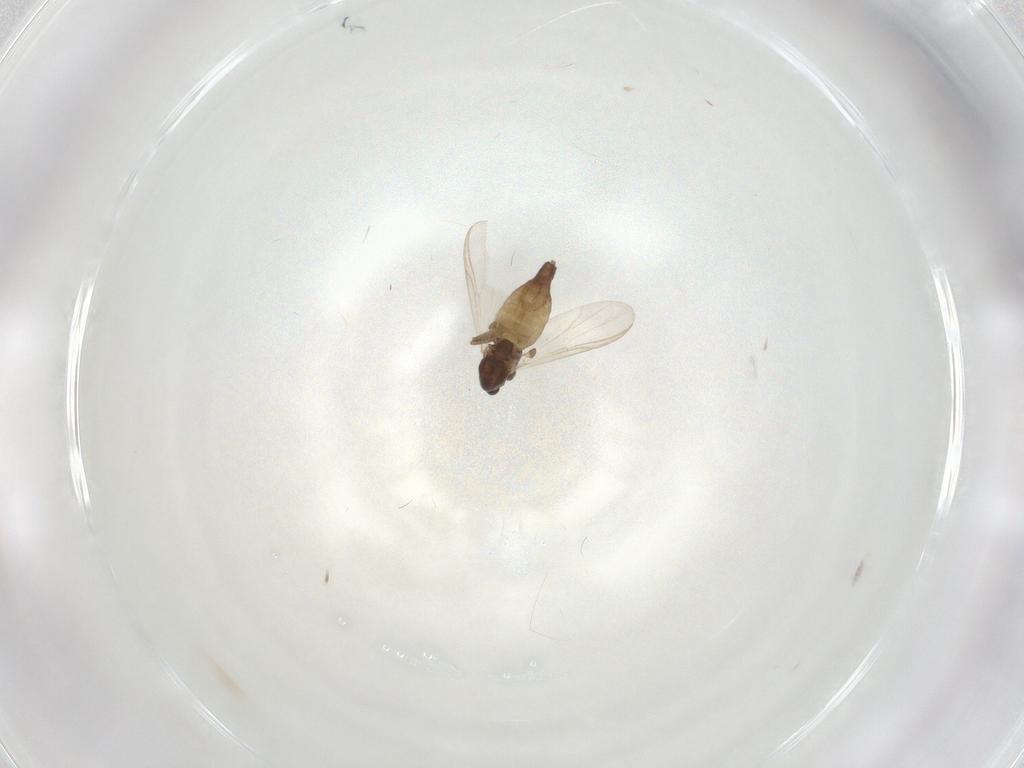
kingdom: Animalia
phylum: Arthropoda
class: Insecta
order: Diptera
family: Chironomidae
